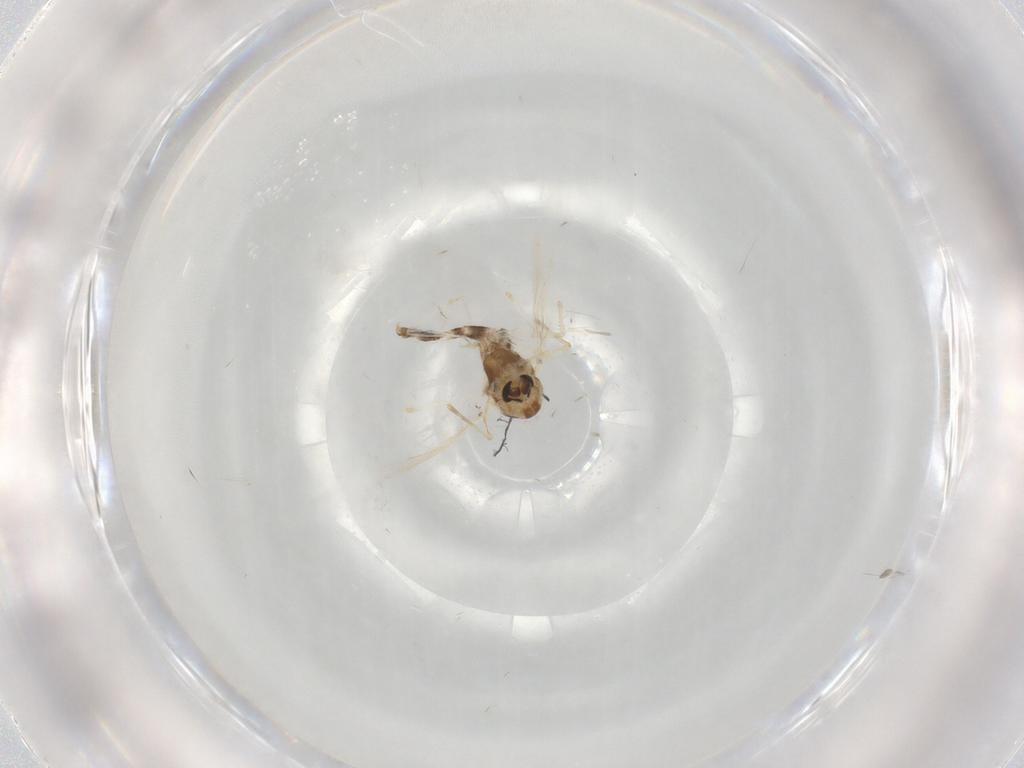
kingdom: Animalia
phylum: Arthropoda
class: Insecta
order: Diptera
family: Chironomidae
